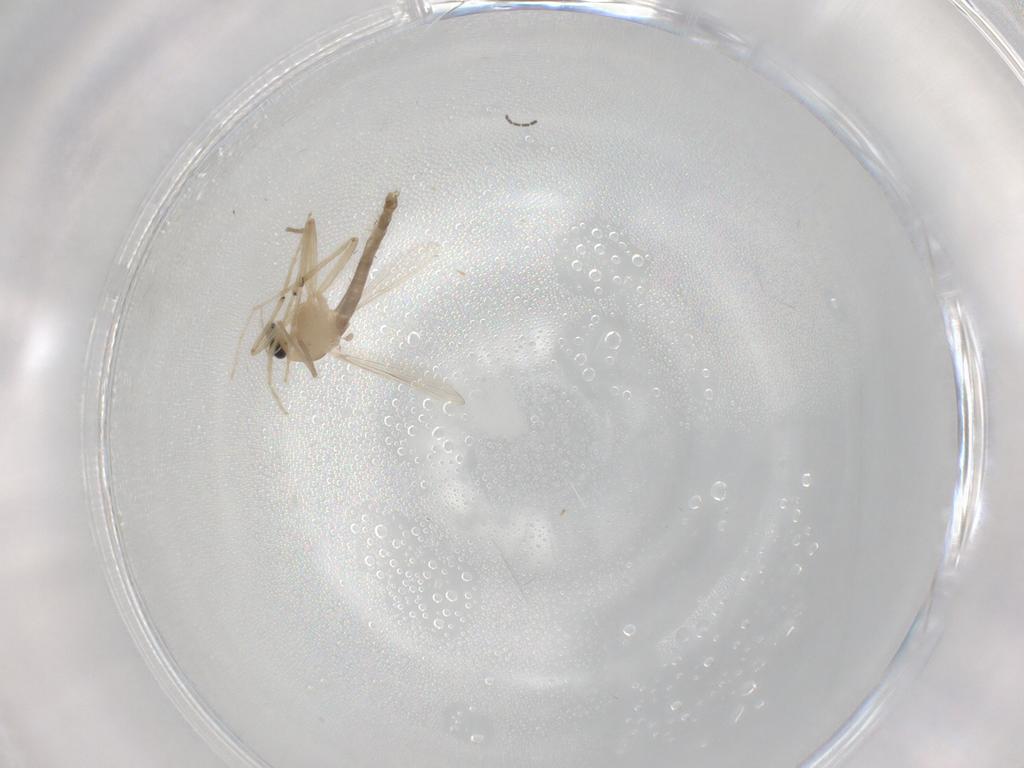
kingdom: Animalia
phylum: Arthropoda
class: Insecta
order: Diptera
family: Chironomidae
